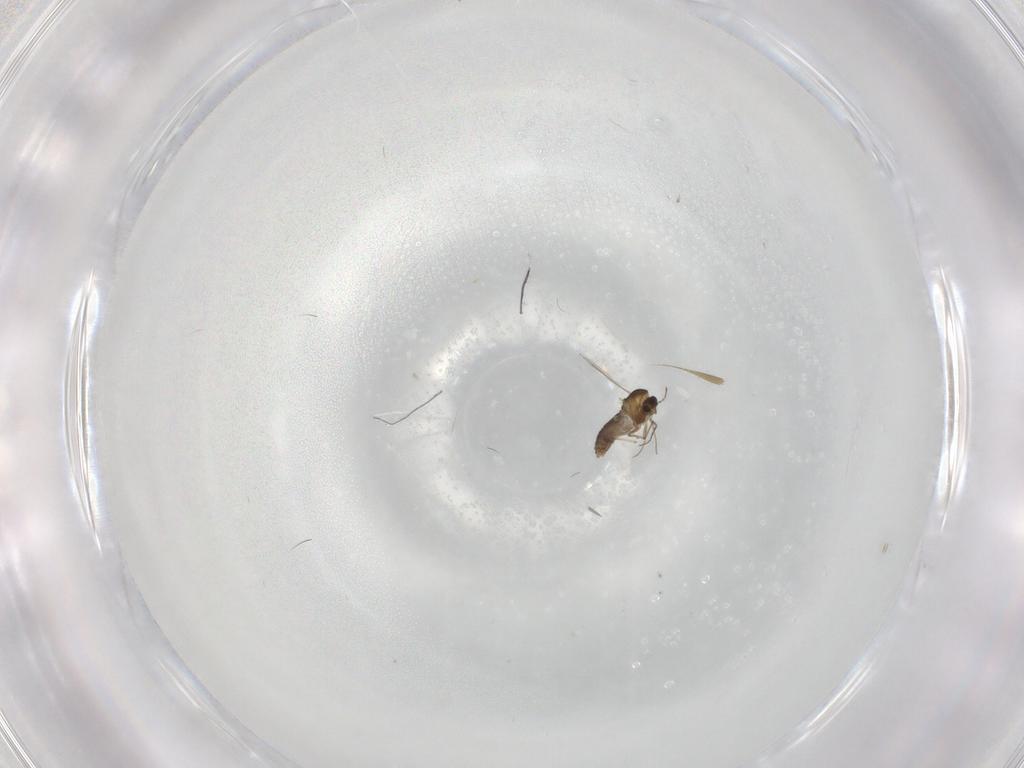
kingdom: Animalia
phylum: Arthropoda
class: Insecta
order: Diptera
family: Chironomidae
